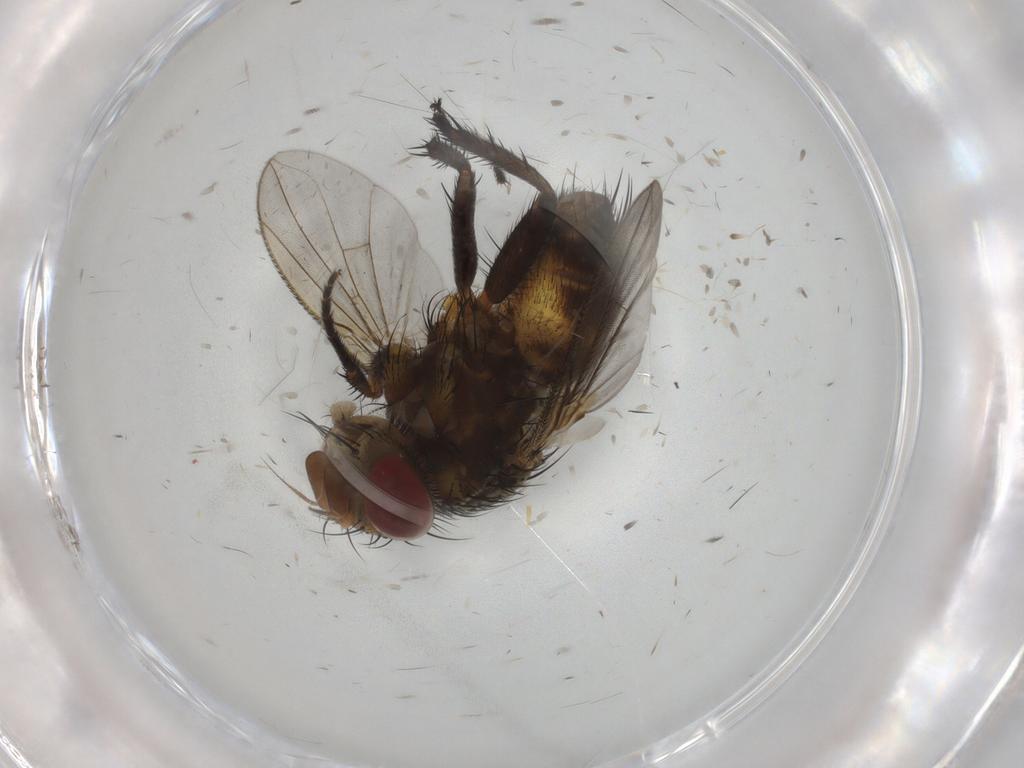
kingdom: Animalia
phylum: Arthropoda
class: Insecta
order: Diptera
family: Tachinidae
